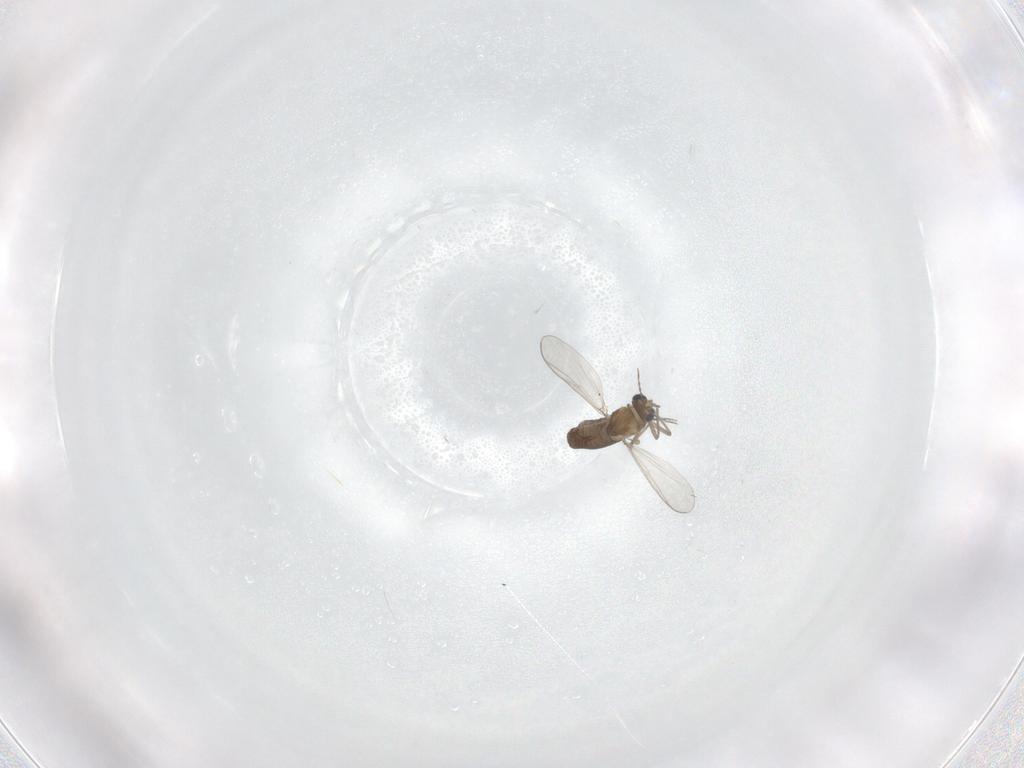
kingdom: Animalia
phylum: Arthropoda
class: Insecta
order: Diptera
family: Chironomidae
